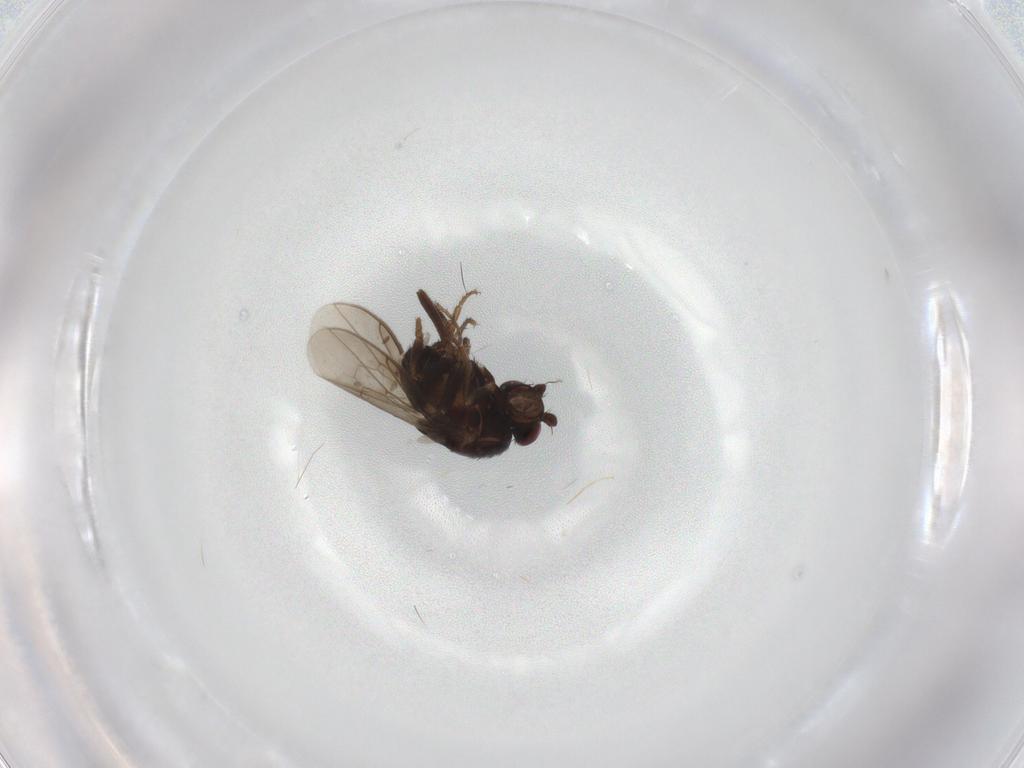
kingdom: Animalia
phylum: Arthropoda
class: Insecta
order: Diptera
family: Sphaeroceridae
